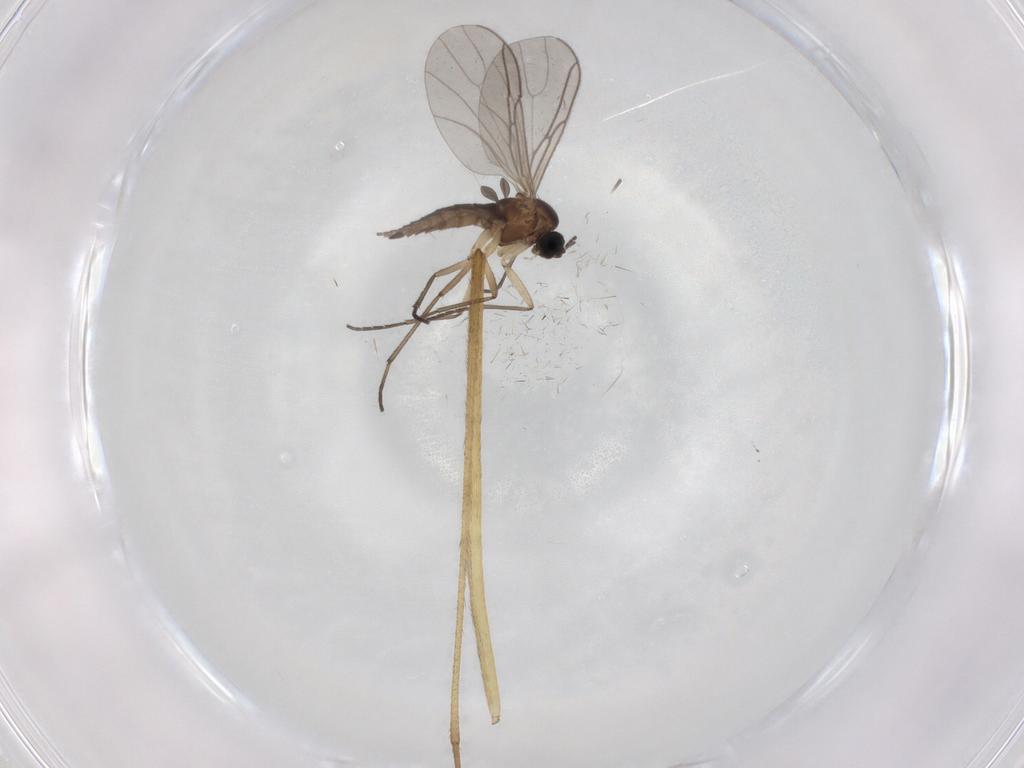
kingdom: Animalia
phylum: Arthropoda
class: Insecta
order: Diptera
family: Sciaridae
